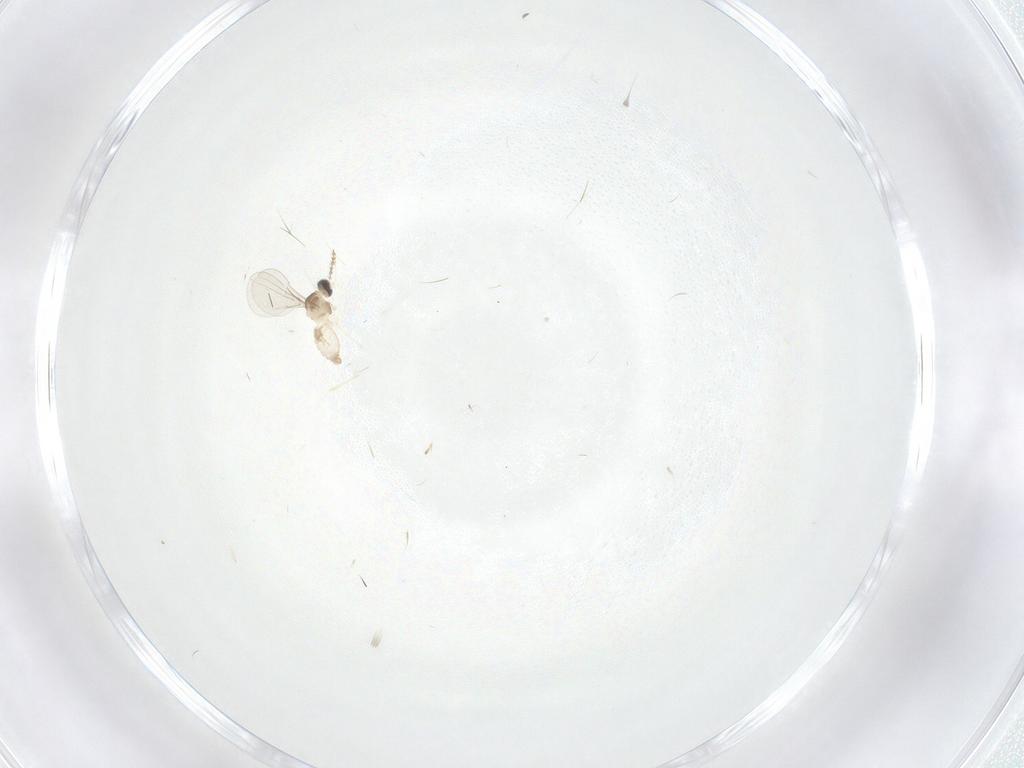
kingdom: Animalia
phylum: Arthropoda
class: Insecta
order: Diptera
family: Cecidomyiidae
